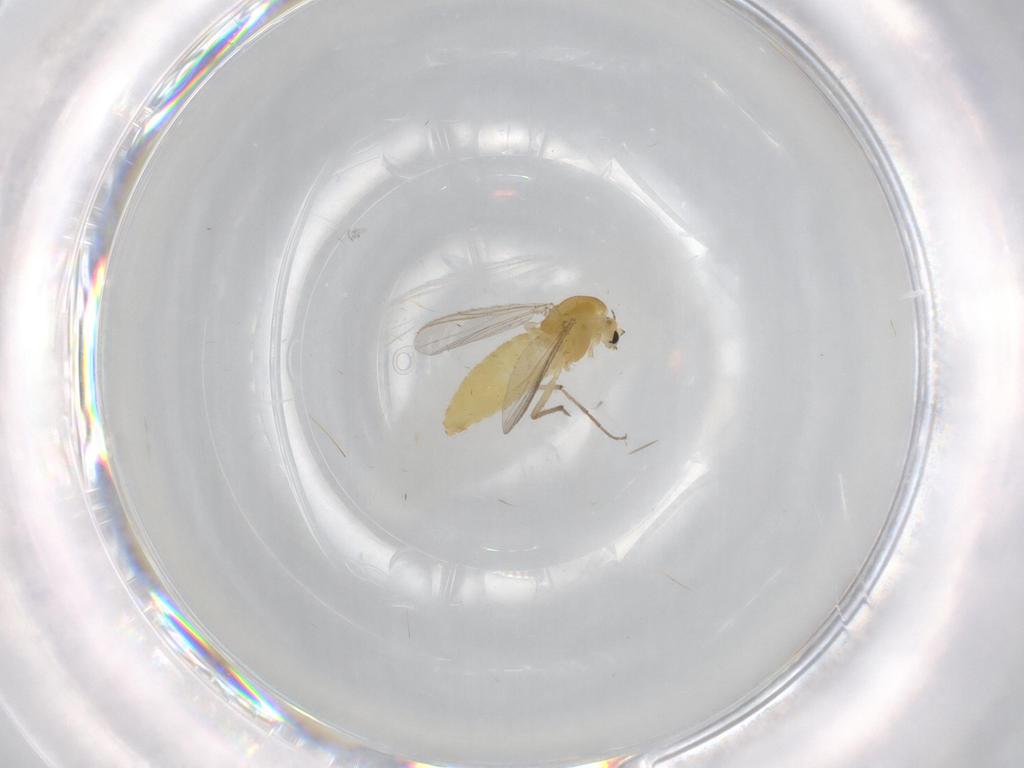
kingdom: Animalia
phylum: Arthropoda
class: Insecta
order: Diptera
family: Chironomidae
